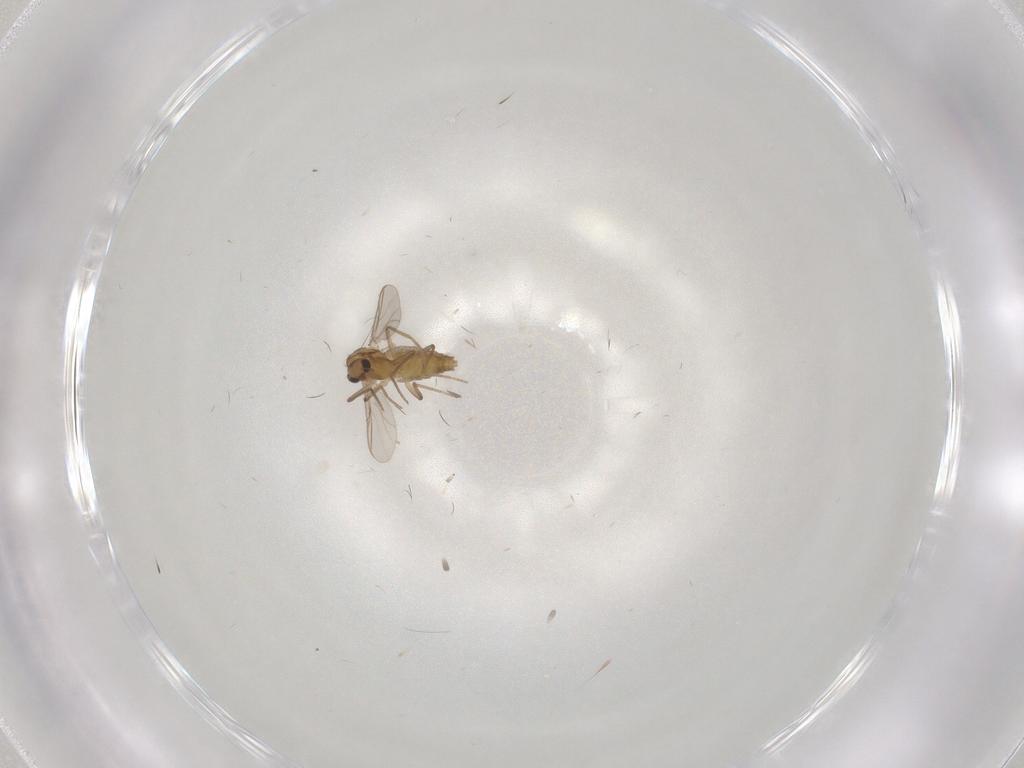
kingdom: Animalia
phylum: Arthropoda
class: Insecta
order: Diptera
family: Chironomidae
